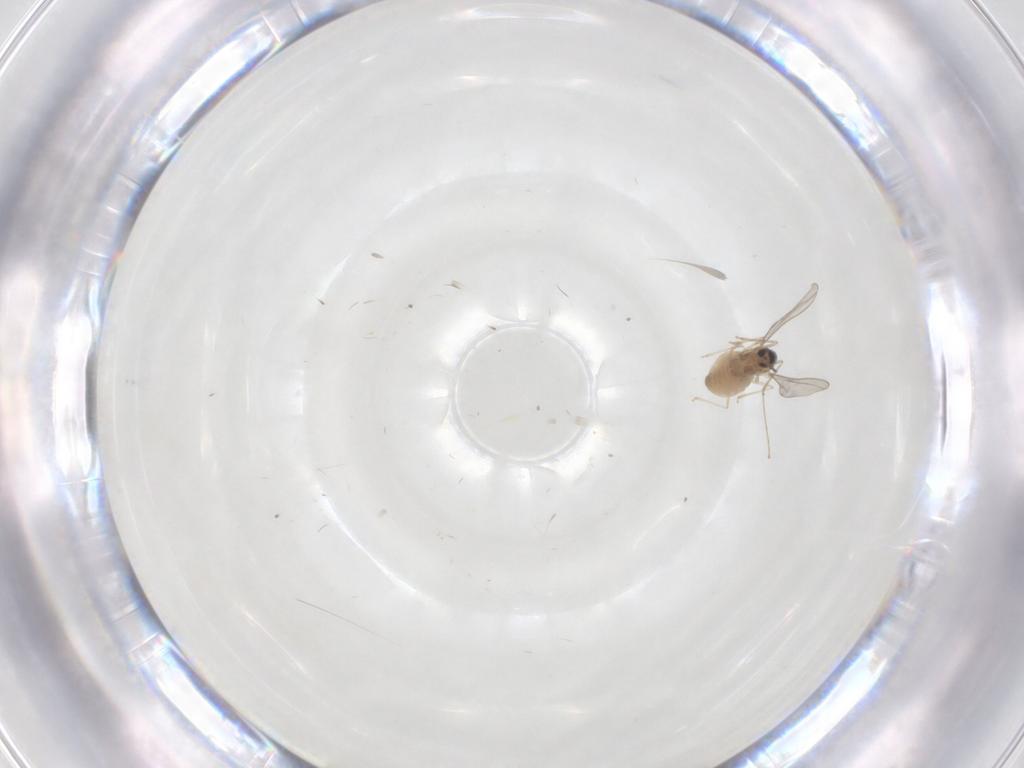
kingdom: Animalia
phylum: Arthropoda
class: Insecta
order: Diptera
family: Cecidomyiidae
